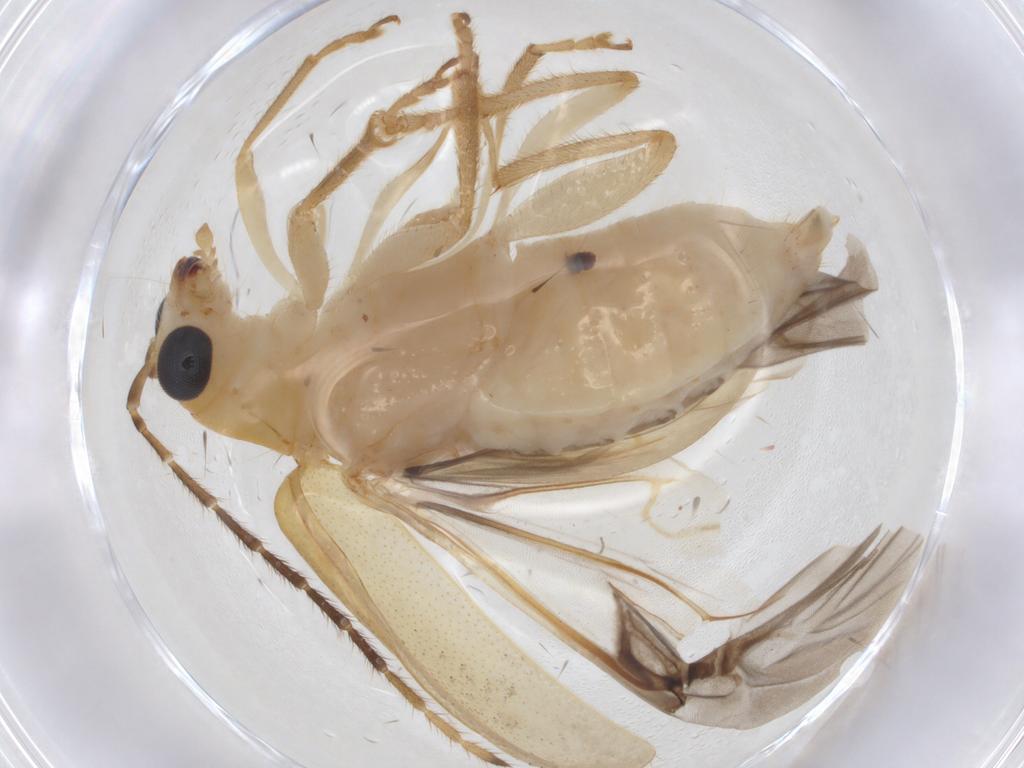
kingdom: Animalia
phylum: Arthropoda
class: Insecta
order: Coleoptera
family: Chrysomelidae
